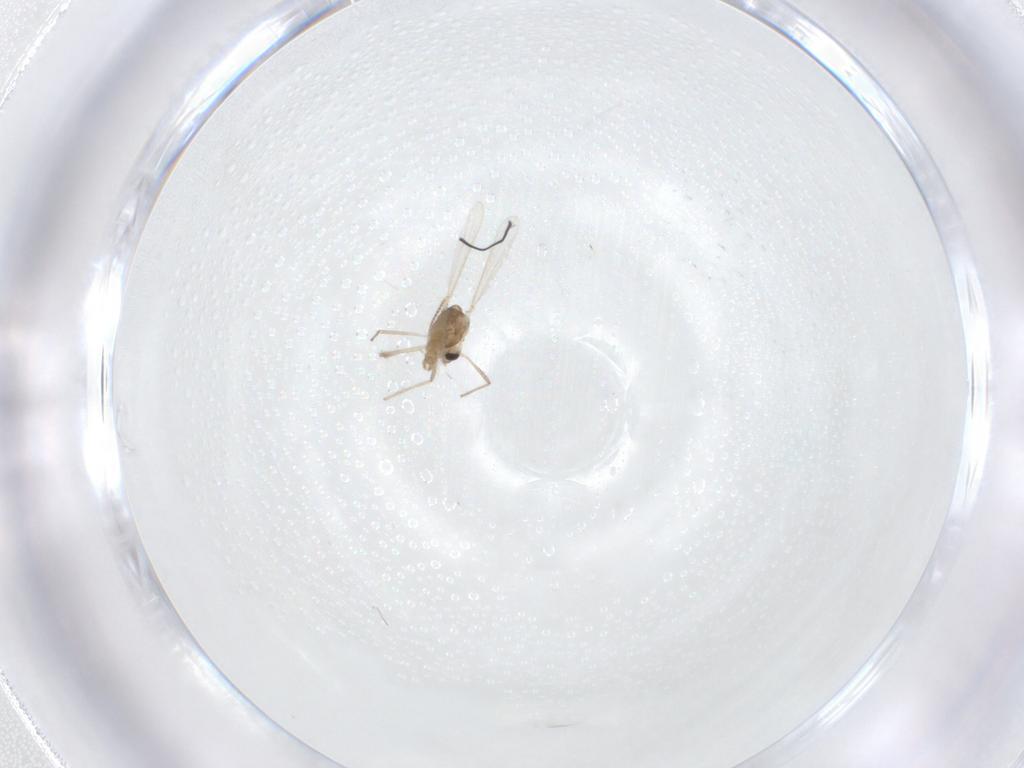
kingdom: Animalia
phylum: Arthropoda
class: Insecta
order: Diptera
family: Chironomidae
